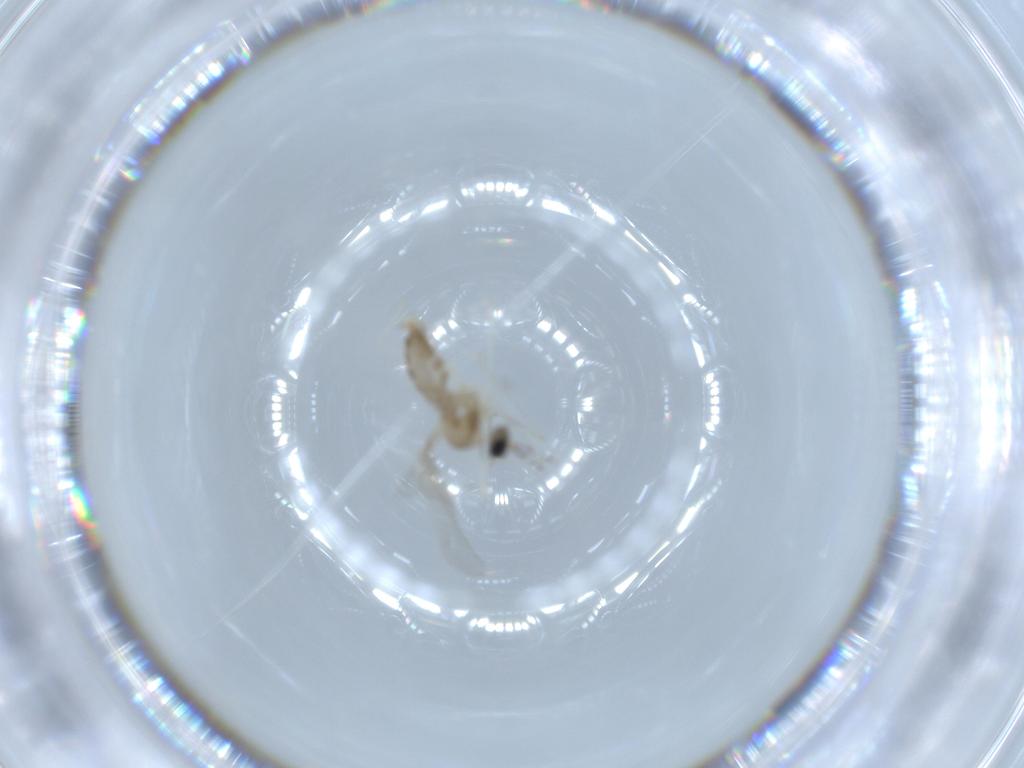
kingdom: Animalia
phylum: Arthropoda
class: Insecta
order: Diptera
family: Cecidomyiidae
